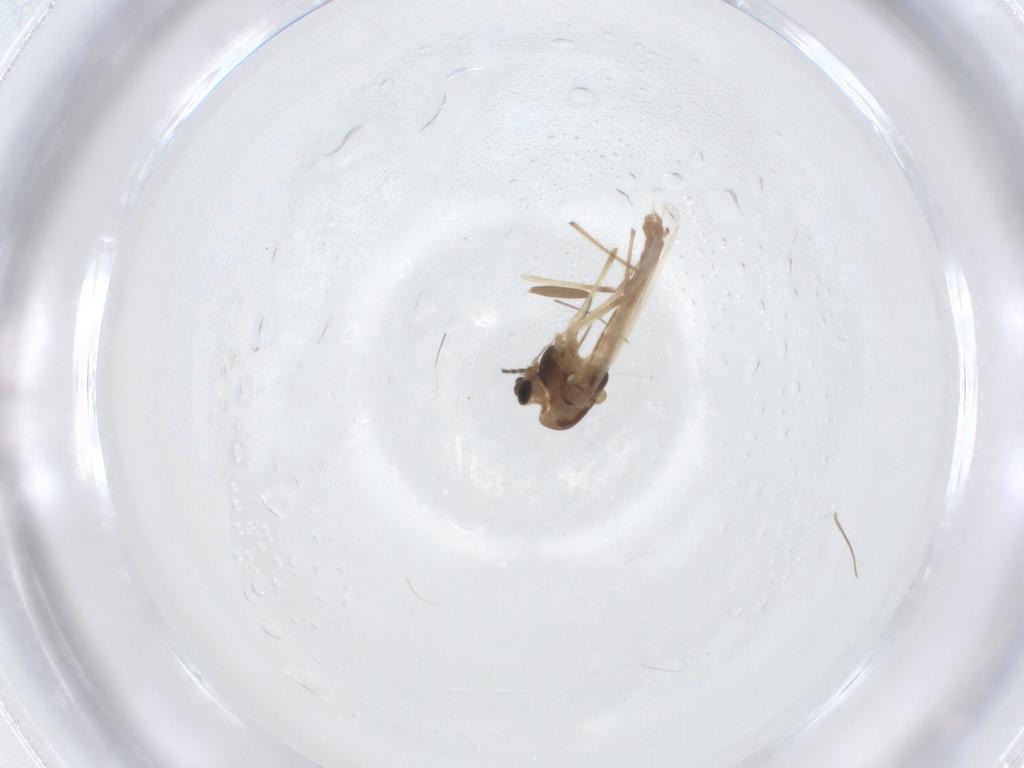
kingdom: Animalia
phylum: Arthropoda
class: Insecta
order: Diptera
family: Chironomidae
